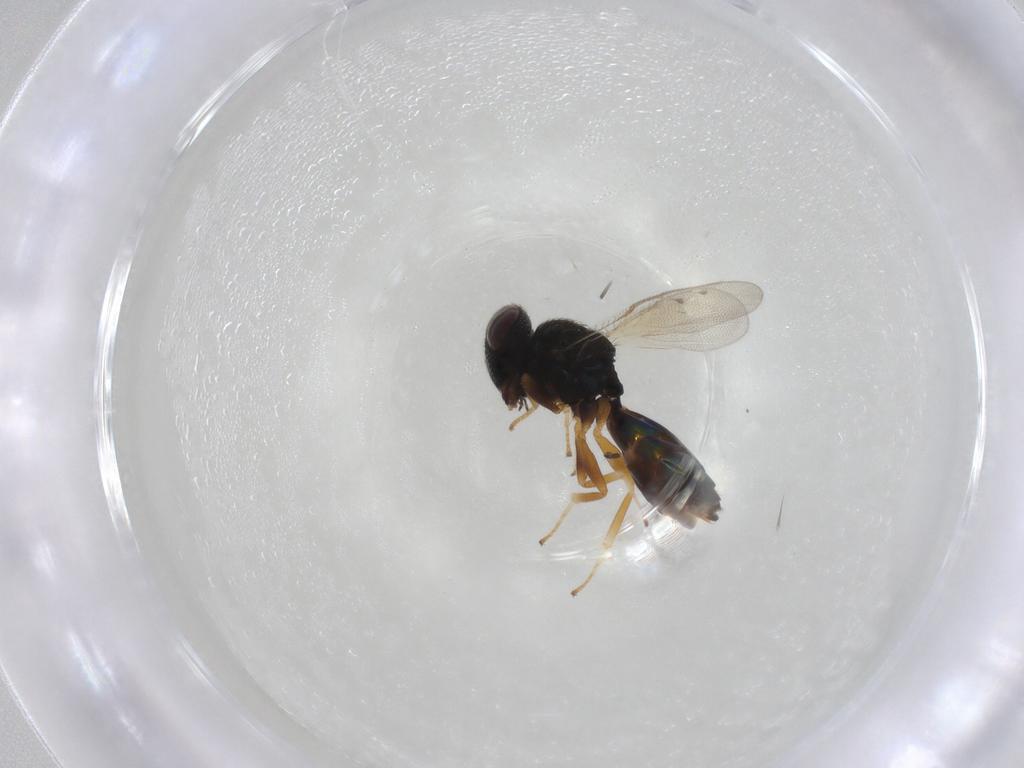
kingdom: Animalia
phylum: Arthropoda
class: Insecta
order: Hymenoptera
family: Pteromalidae
